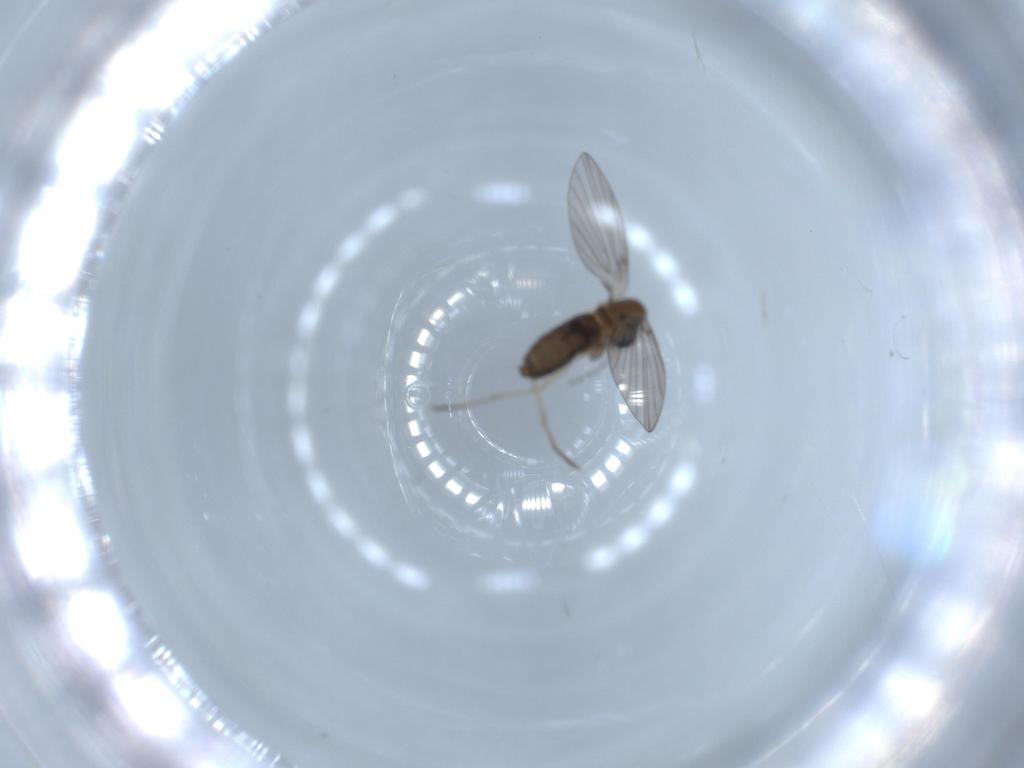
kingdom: Animalia
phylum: Arthropoda
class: Insecta
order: Diptera
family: Psychodidae
